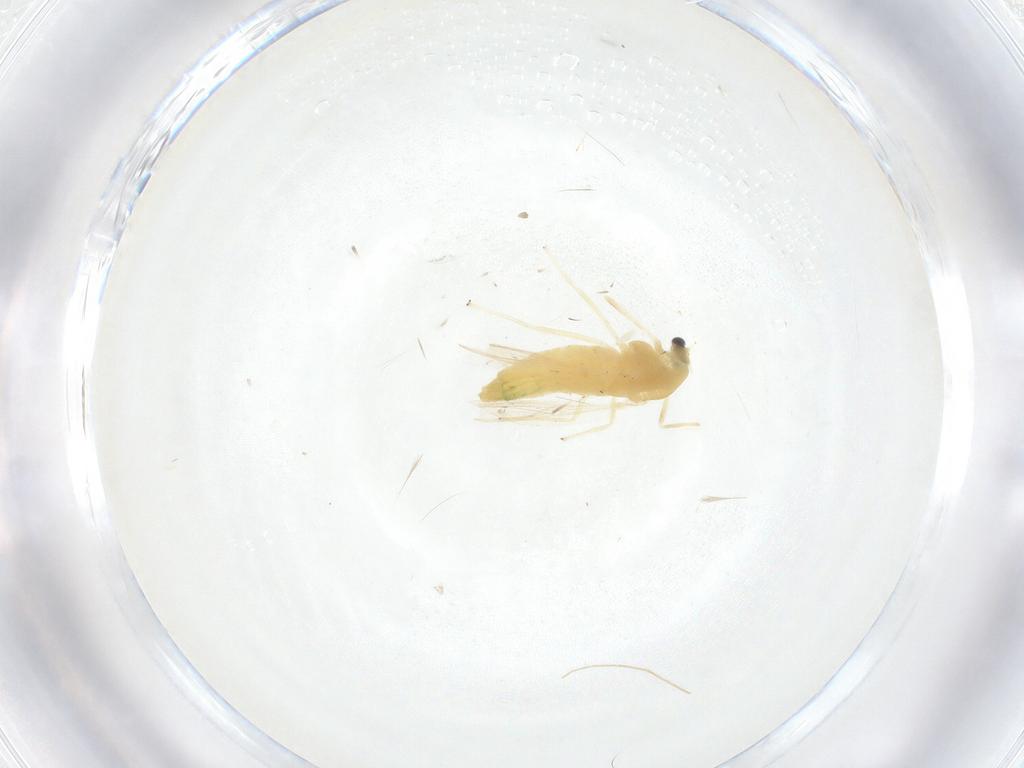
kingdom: Animalia
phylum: Arthropoda
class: Insecta
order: Diptera
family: Chironomidae
